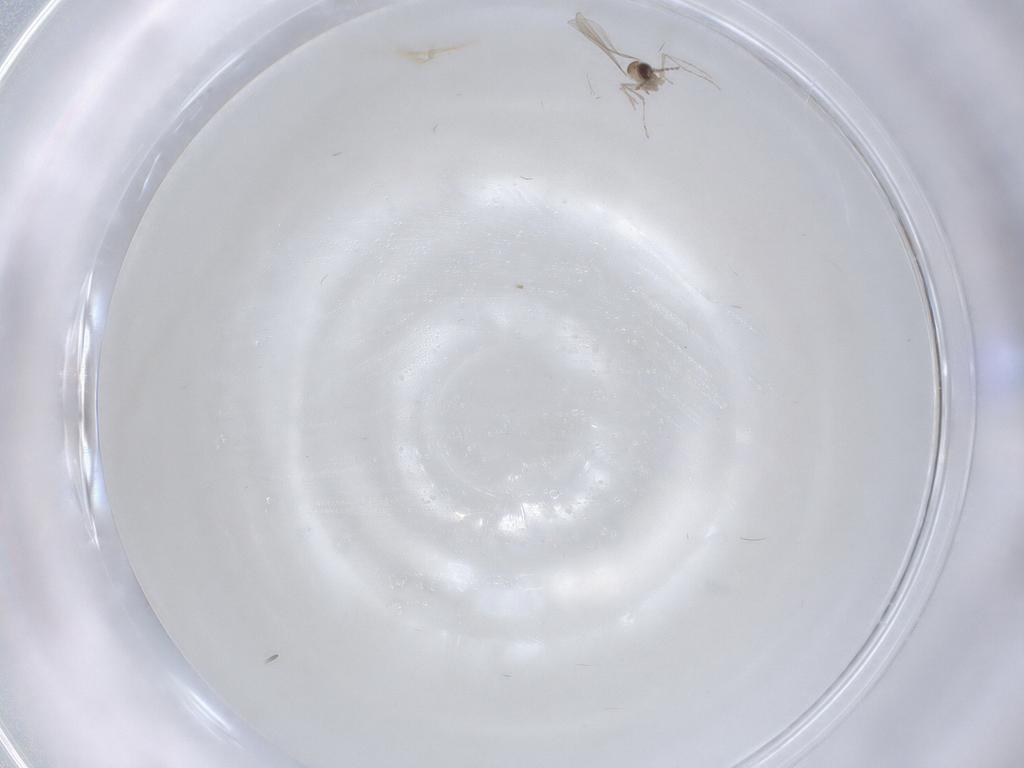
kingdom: Animalia
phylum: Arthropoda
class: Insecta
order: Diptera
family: Cecidomyiidae
